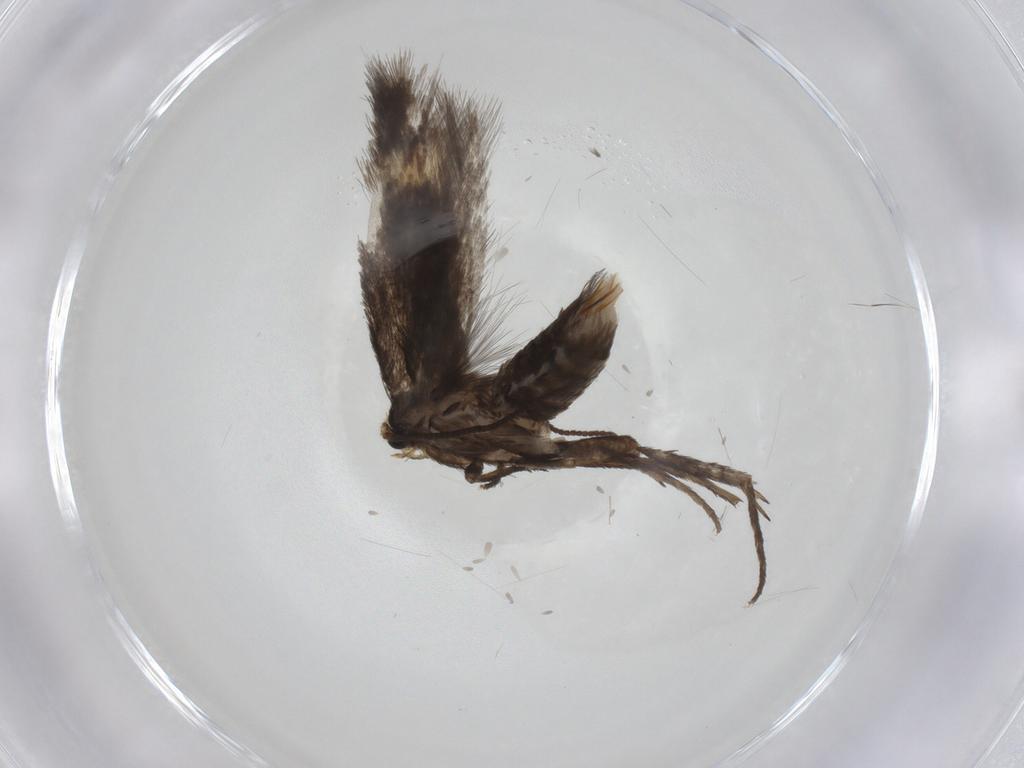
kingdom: Animalia
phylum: Arthropoda
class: Insecta
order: Lepidoptera
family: Nepticulidae
